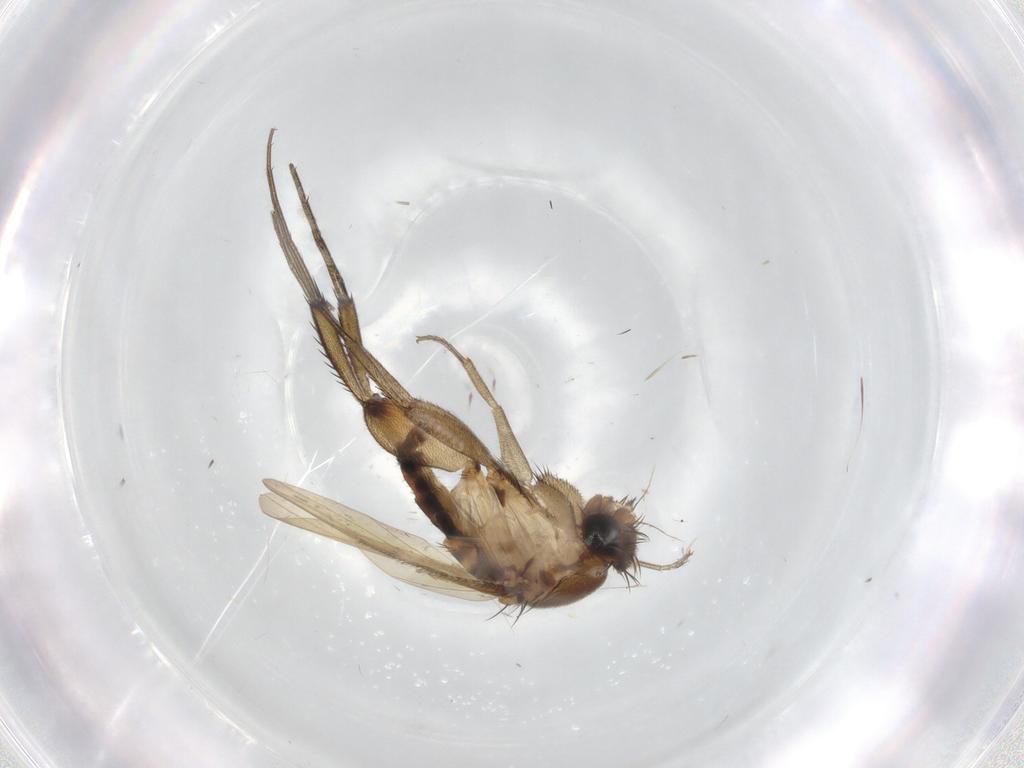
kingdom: Animalia
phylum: Arthropoda
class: Insecta
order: Diptera
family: Phoridae
